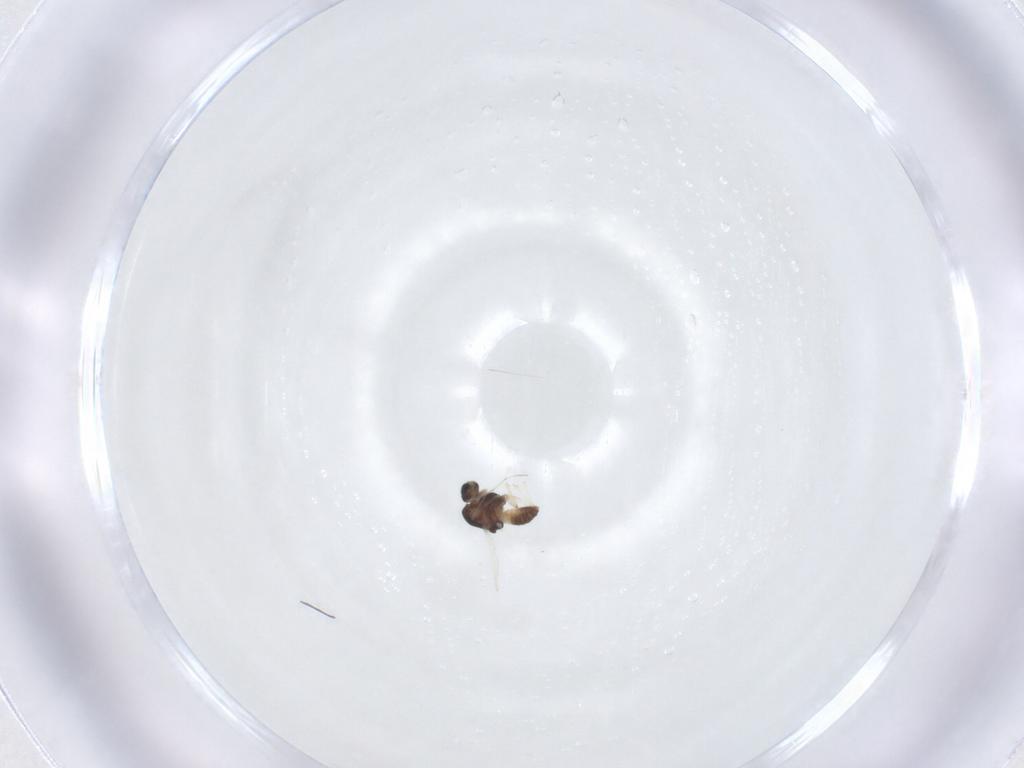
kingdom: Animalia
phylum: Arthropoda
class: Insecta
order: Diptera
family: Chironomidae
